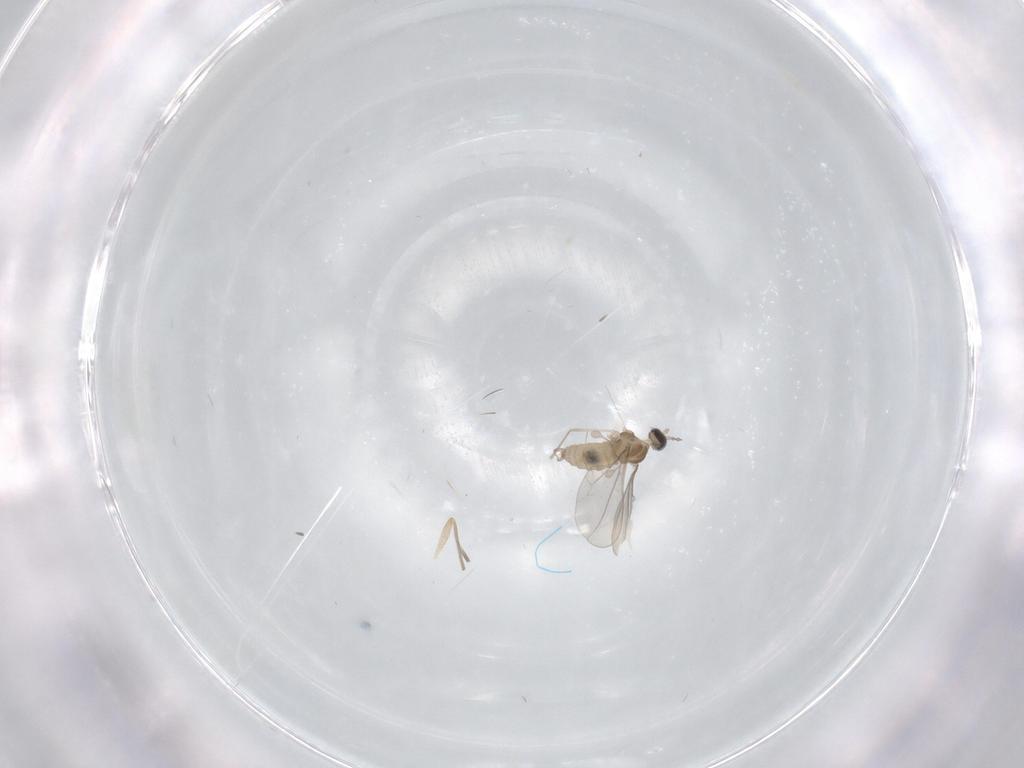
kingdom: Animalia
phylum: Arthropoda
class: Insecta
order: Diptera
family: Cecidomyiidae
